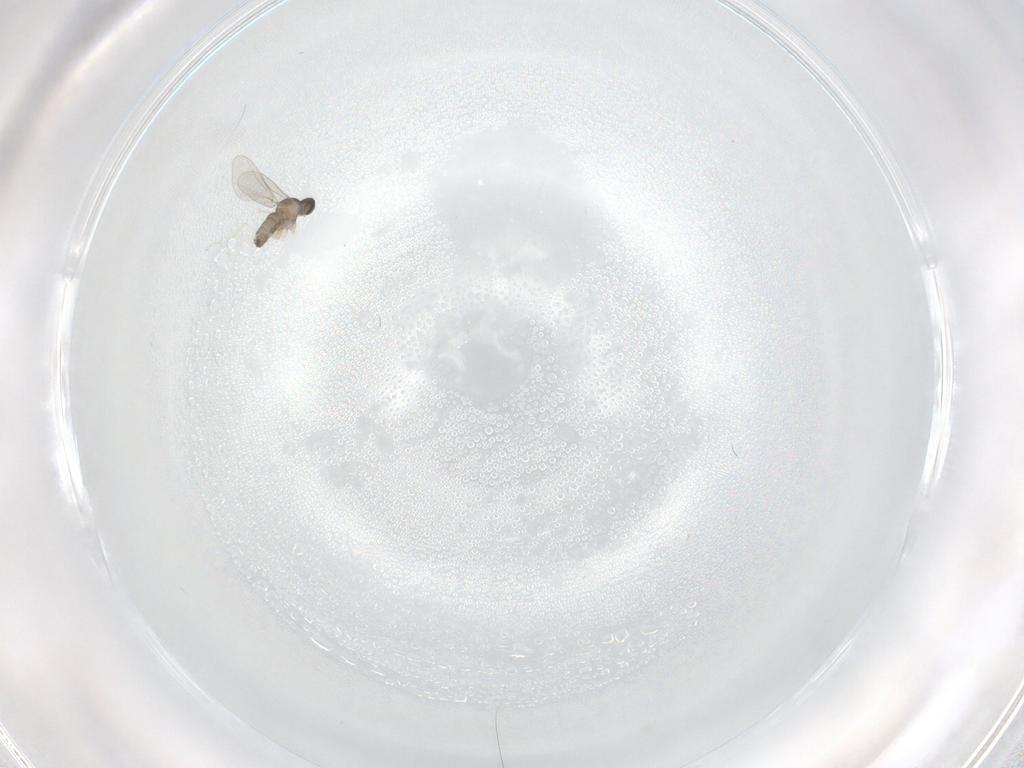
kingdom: Animalia
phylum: Arthropoda
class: Insecta
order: Diptera
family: Cecidomyiidae
